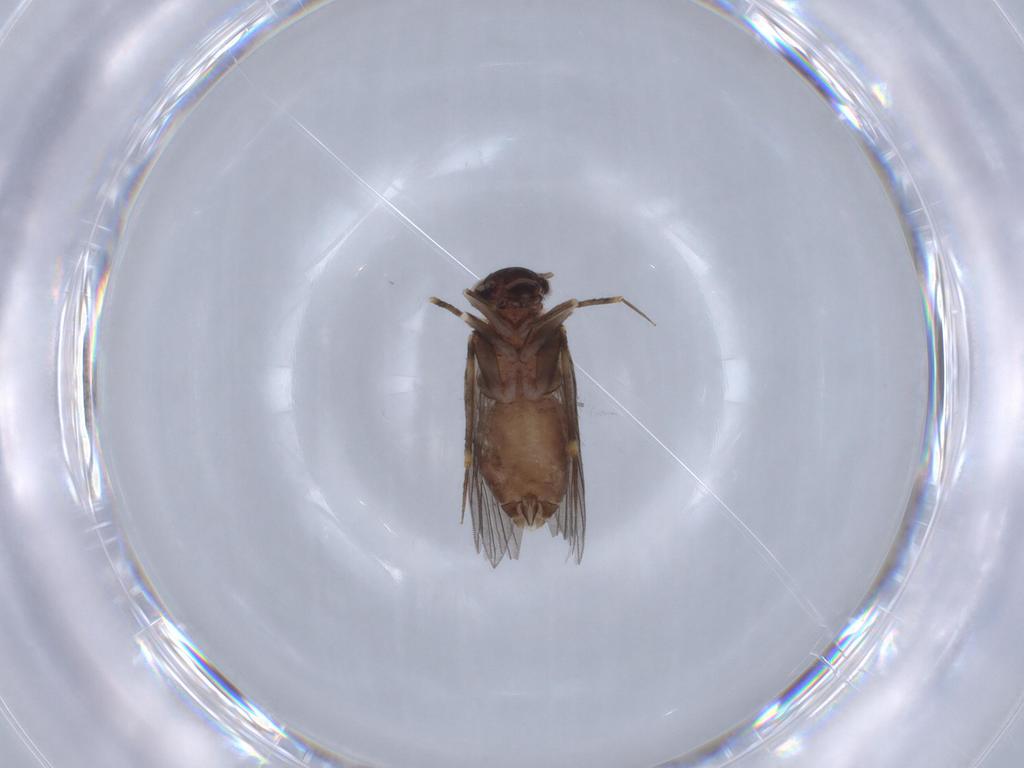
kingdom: Animalia
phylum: Arthropoda
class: Insecta
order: Psocodea
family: Lepidopsocidae
